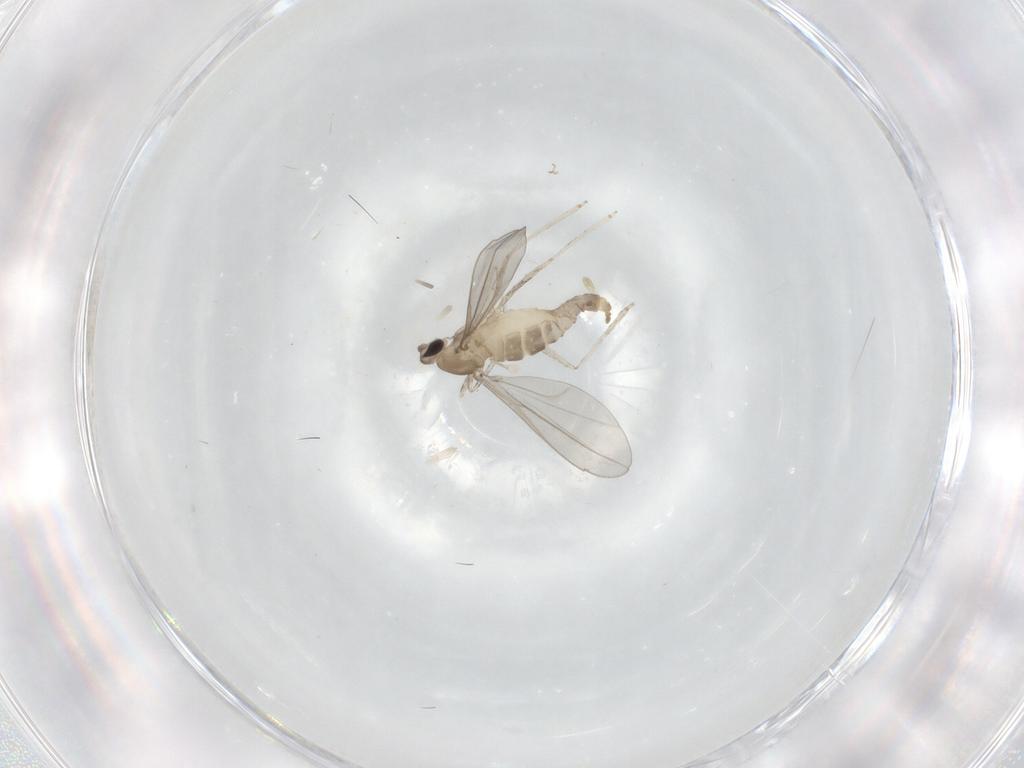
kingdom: Animalia
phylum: Arthropoda
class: Insecta
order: Diptera
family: Cecidomyiidae
